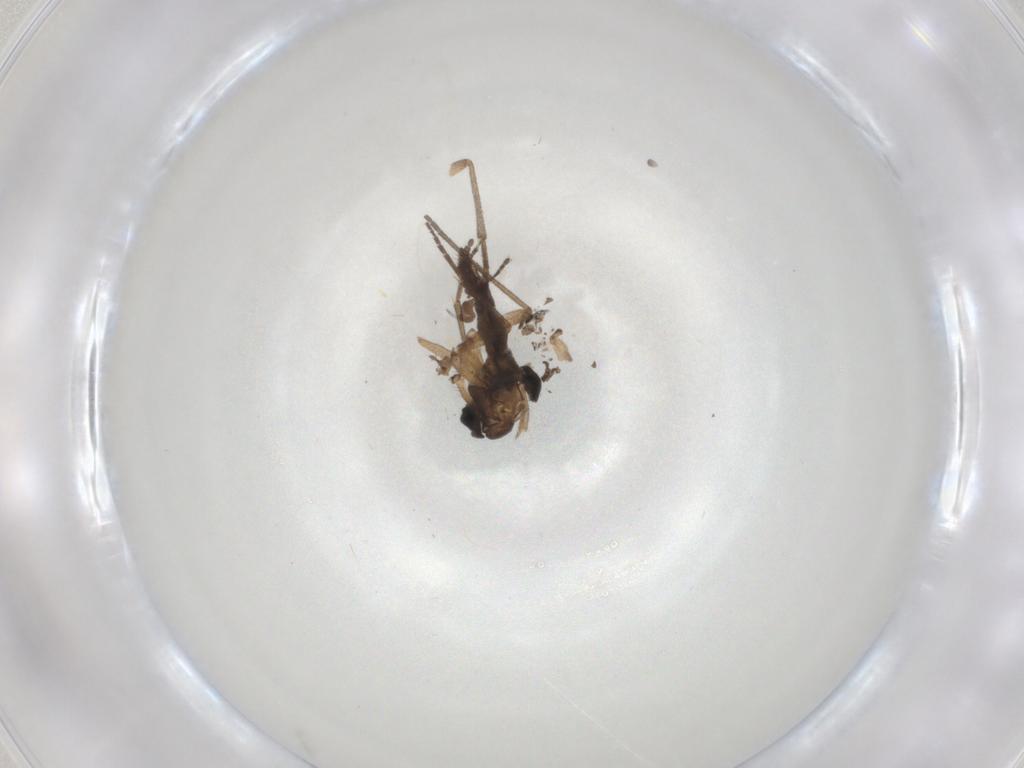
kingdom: Animalia
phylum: Arthropoda
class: Insecta
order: Diptera
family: Sciaridae
